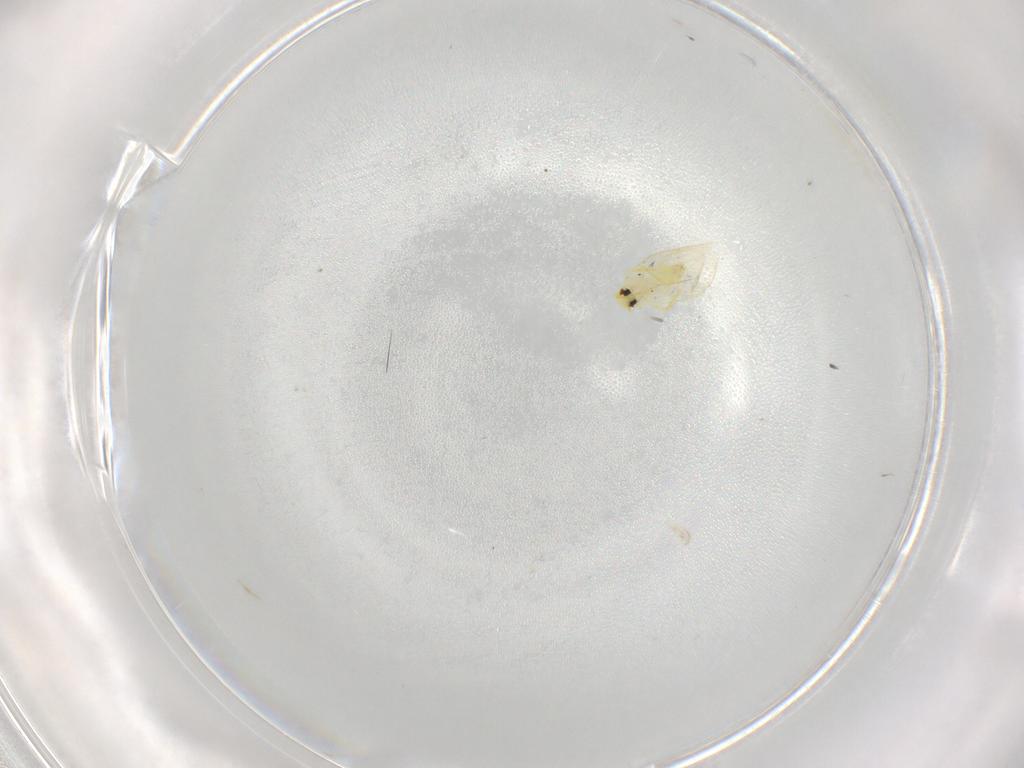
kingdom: Animalia
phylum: Arthropoda
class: Insecta
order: Hemiptera
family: Aleyrodidae
